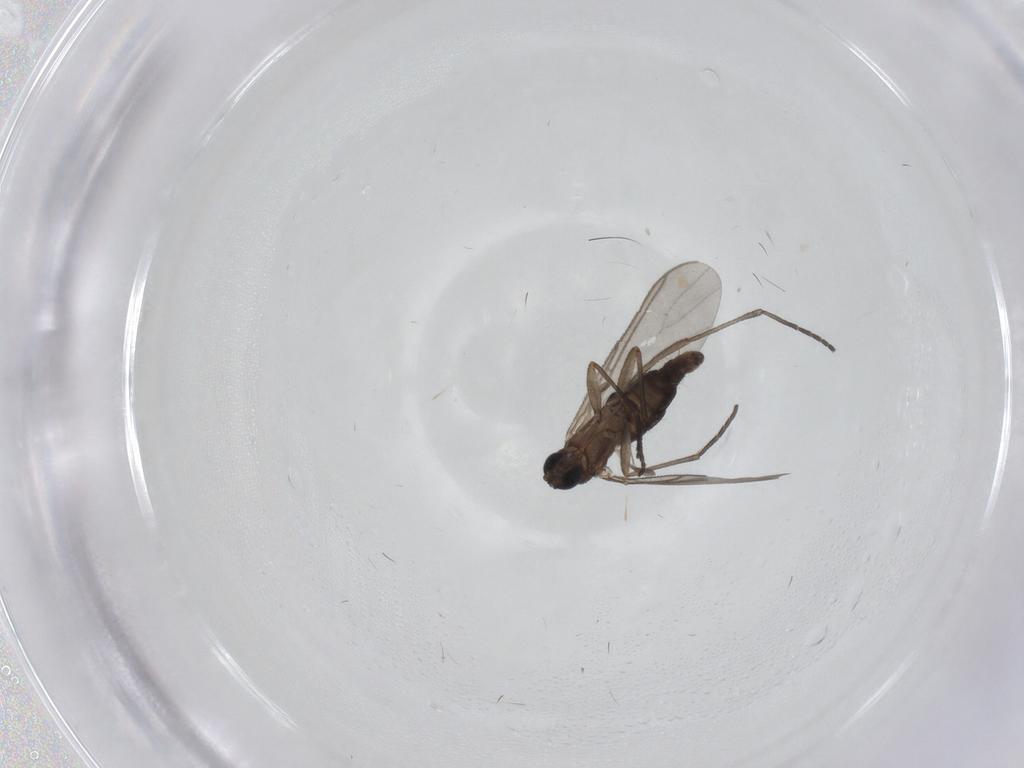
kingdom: Animalia
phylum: Arthropoda
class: Insecta
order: Diptera
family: Sciaridae
